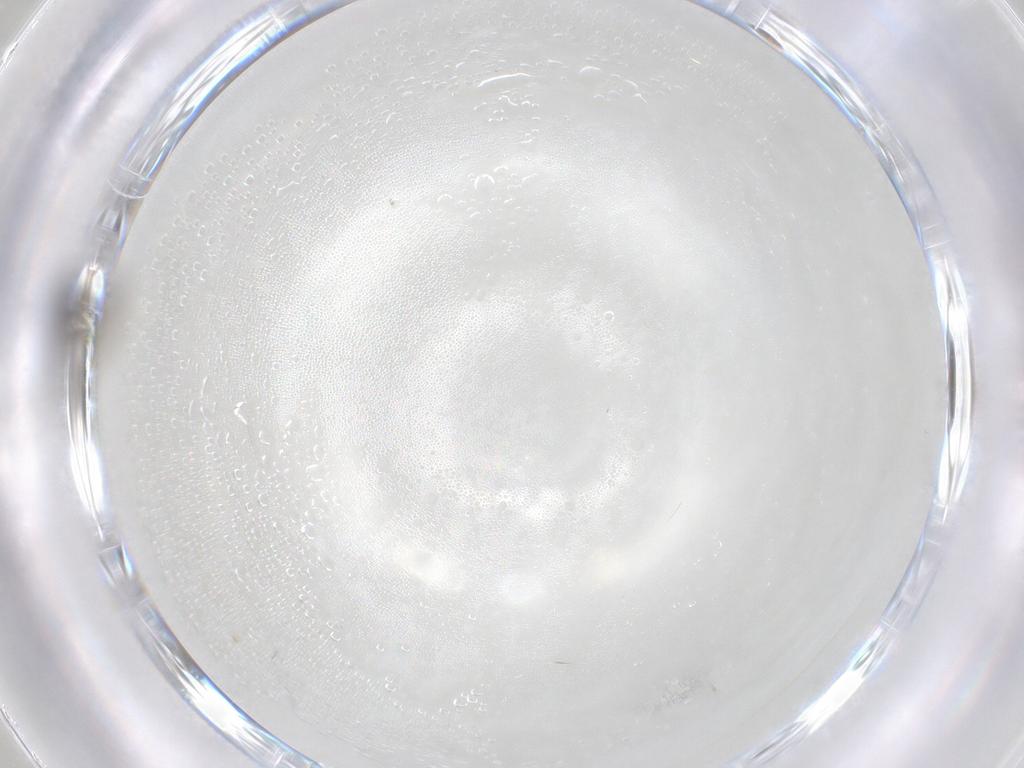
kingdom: Animalia
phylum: Arthropoda
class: Insecta
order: Diptera
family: Ceratopogonidae
